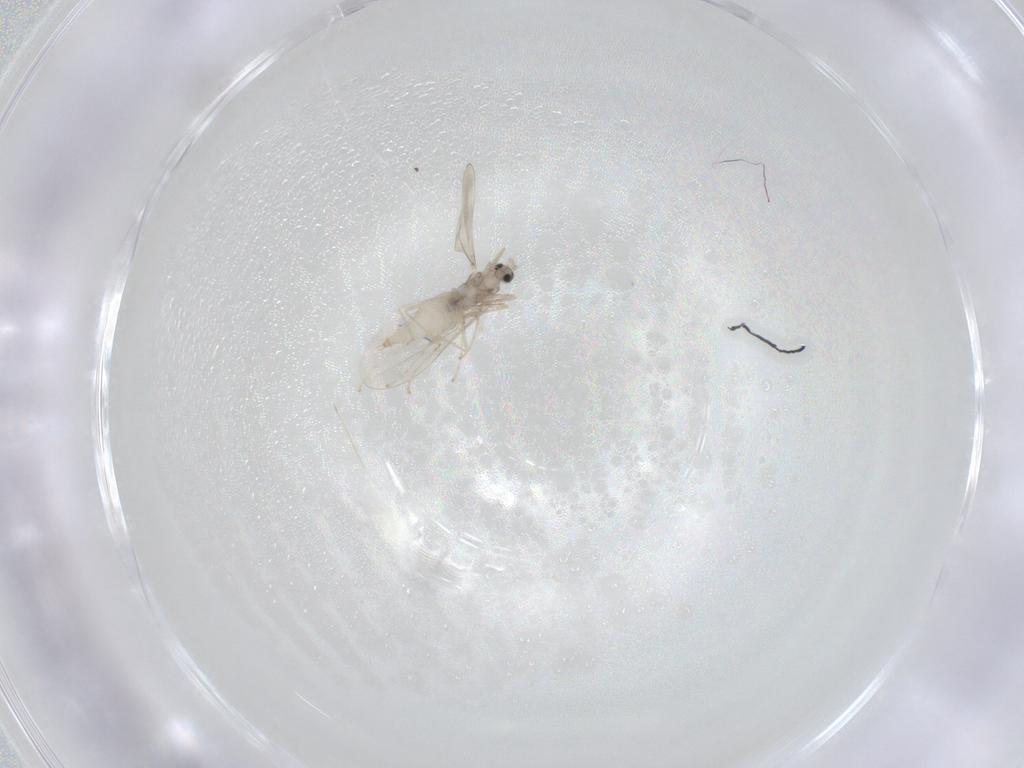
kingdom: Animalia
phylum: Arthropoda
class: Insecta
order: Diptera
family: Cecidomyiidae
